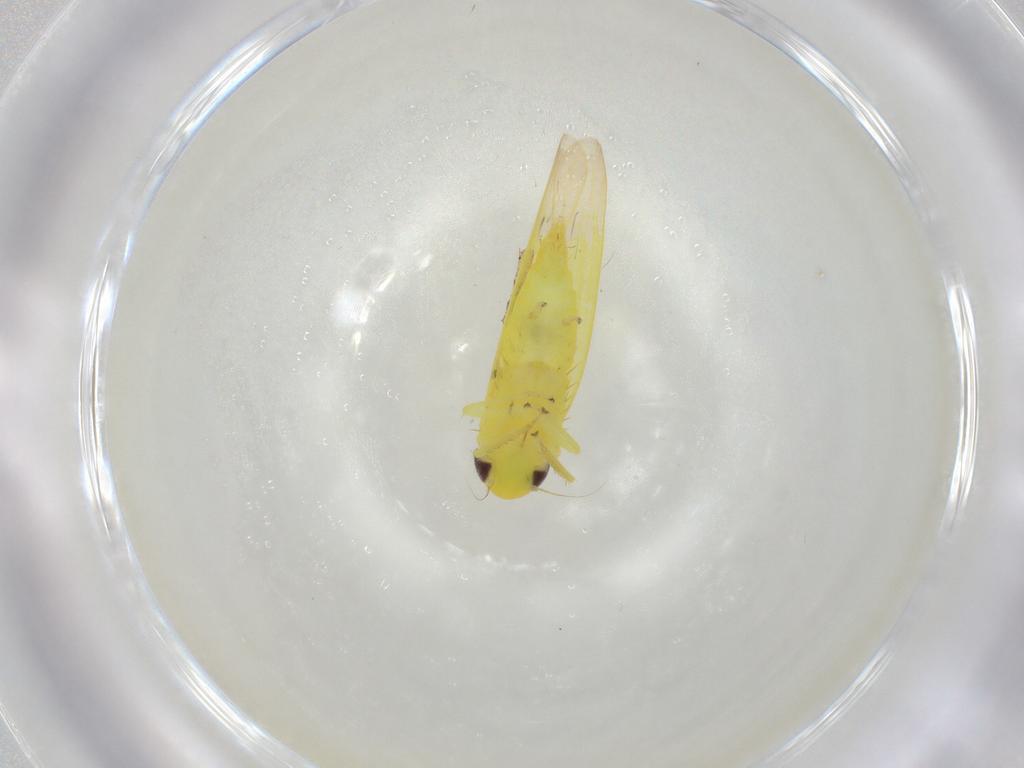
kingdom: Animalia
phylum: Arthropoda
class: Insecta
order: Hemiptera
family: Cicadellidae
